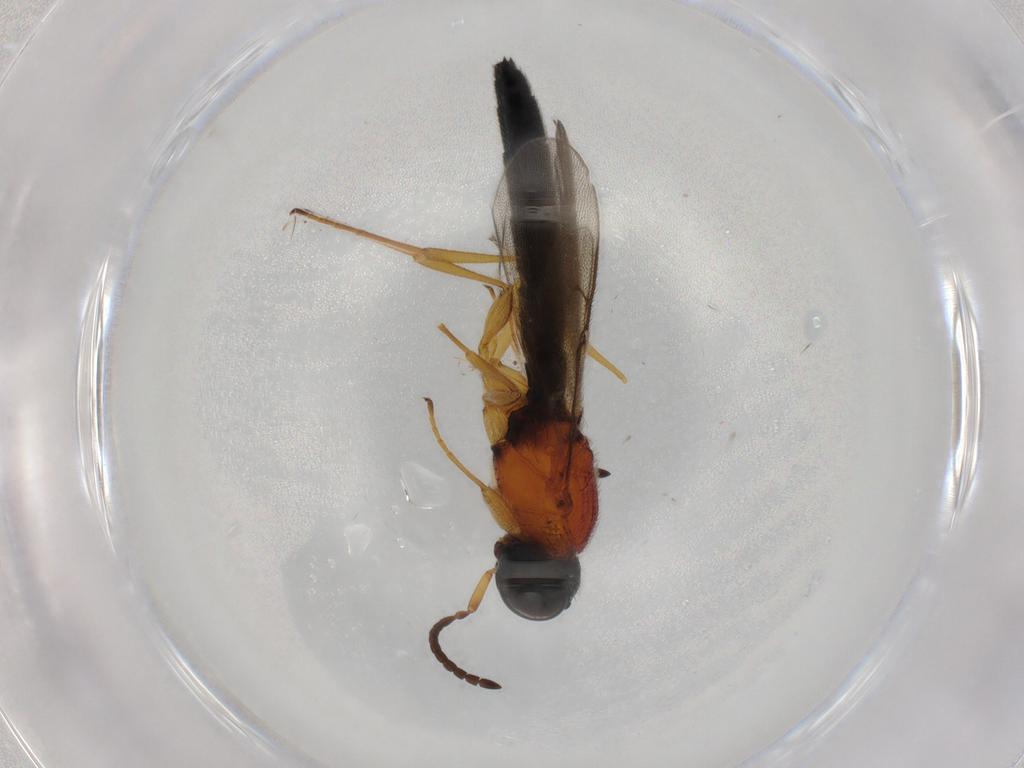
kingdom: Animalia
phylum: Arthropoda
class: Insecta
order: Hymenoptera
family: Scelionidae
